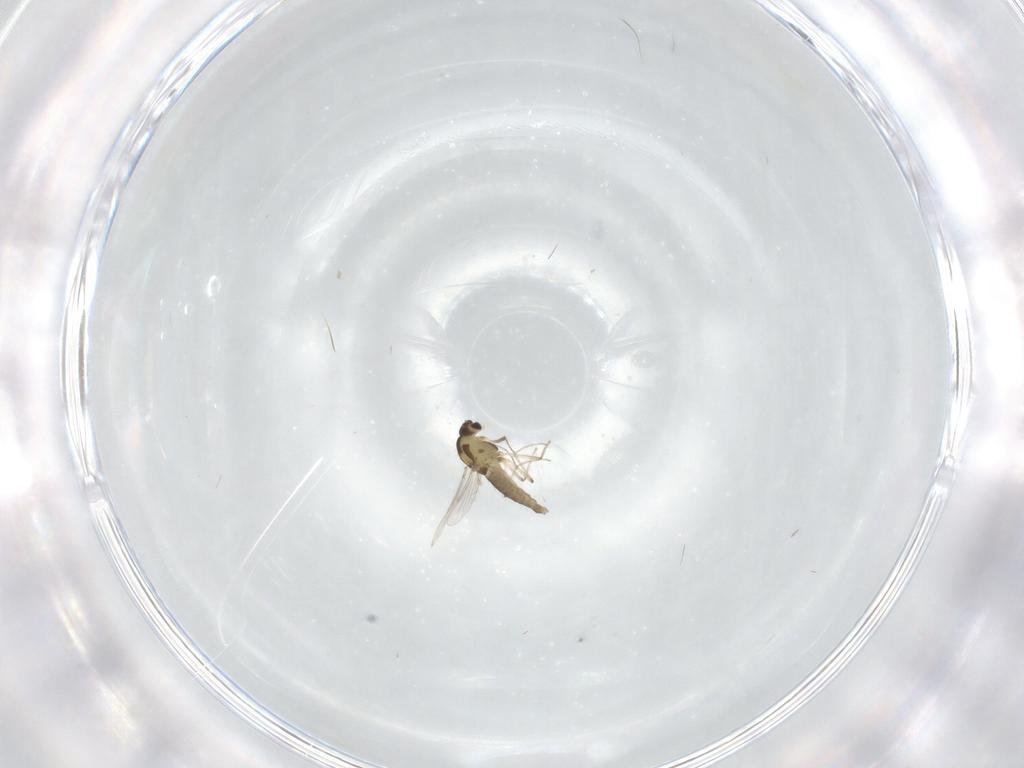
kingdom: Animalia
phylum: Arthropoda
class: Insecta
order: Diptera
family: Chironomidae
